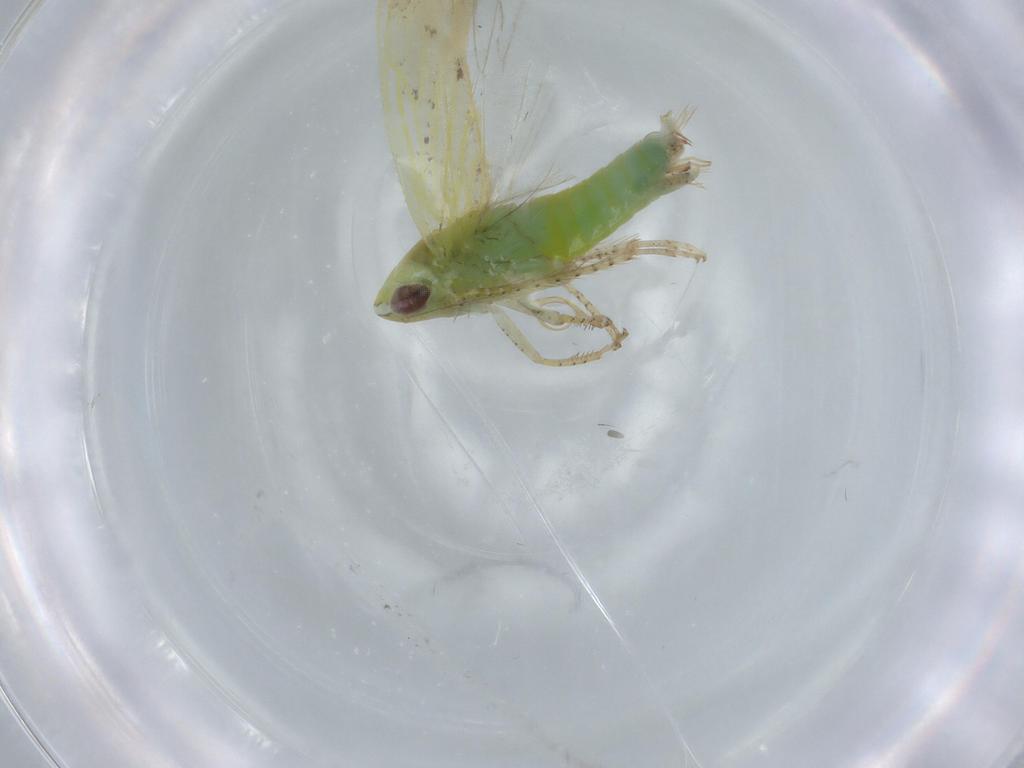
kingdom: Animalia
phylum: Arthropoda
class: Insecta
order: Hemiptera
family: Cicadellidae
